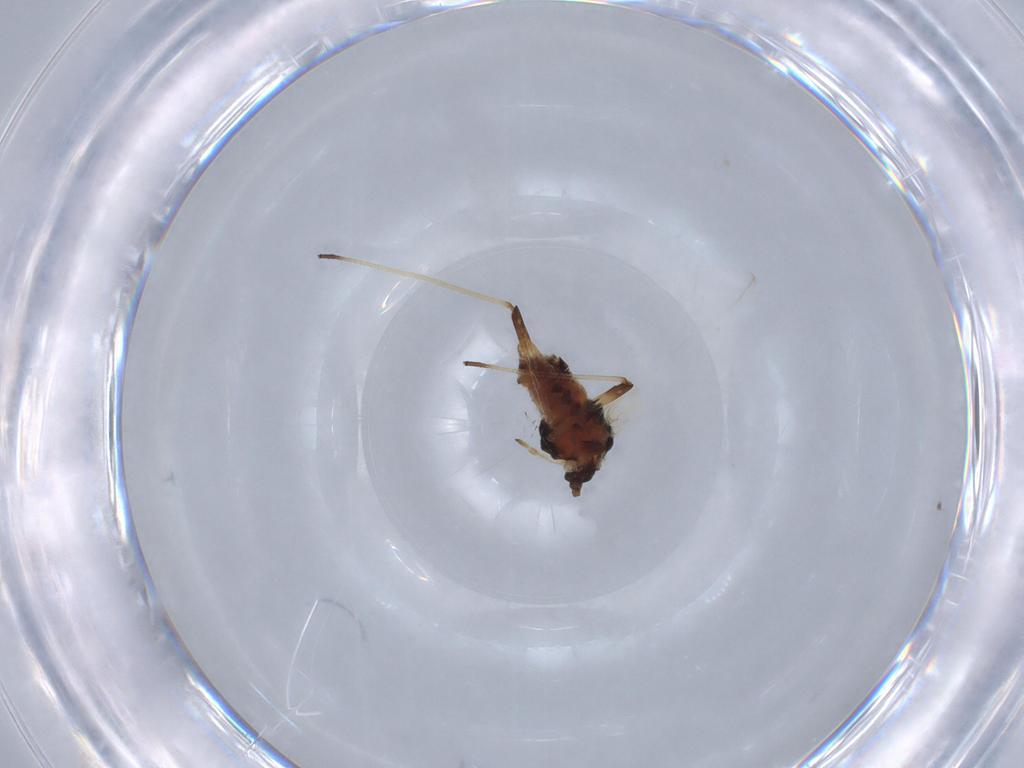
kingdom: Animalia
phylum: Arthropoda
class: Insecta
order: Hemiptera
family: Aphididae
